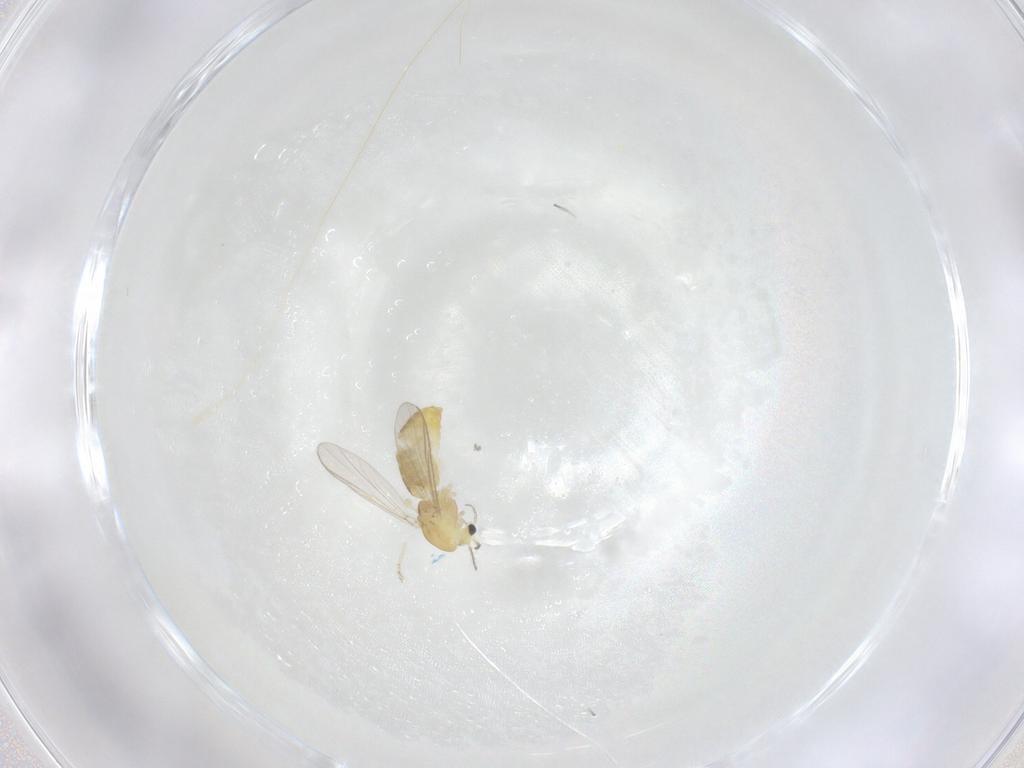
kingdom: Animalia
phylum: Arthropoda
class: Insecta
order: Diptera
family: Chironomidae
